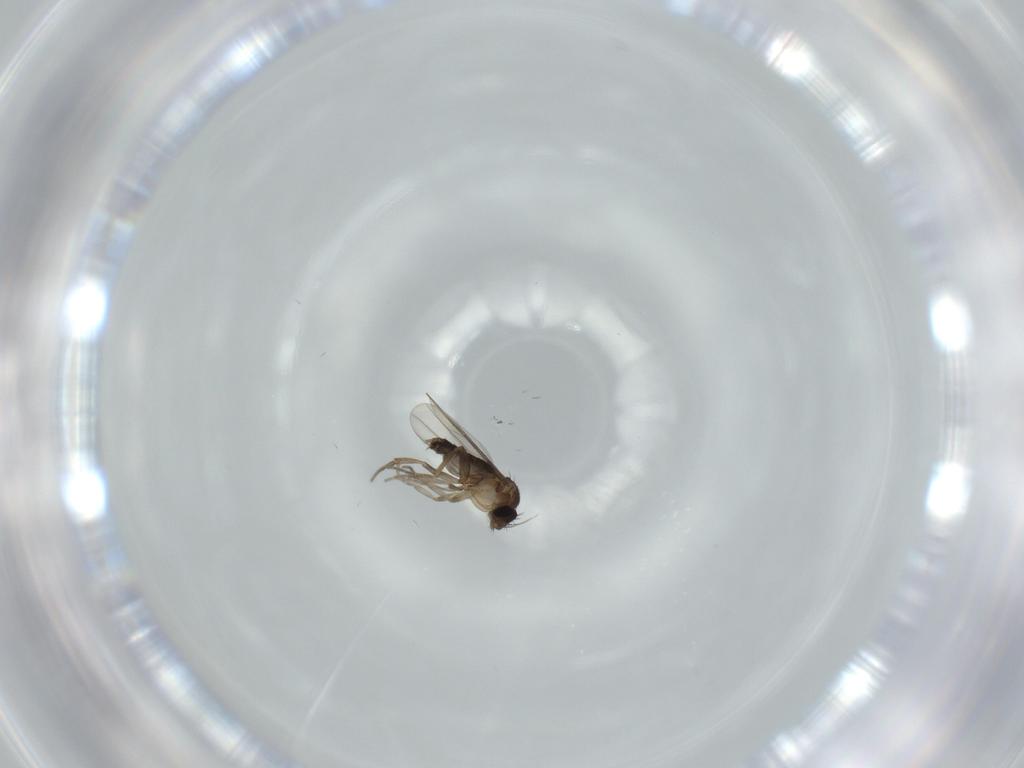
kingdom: Animalia
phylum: Arthropoda
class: Insecta
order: Diptera
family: Phoridae
